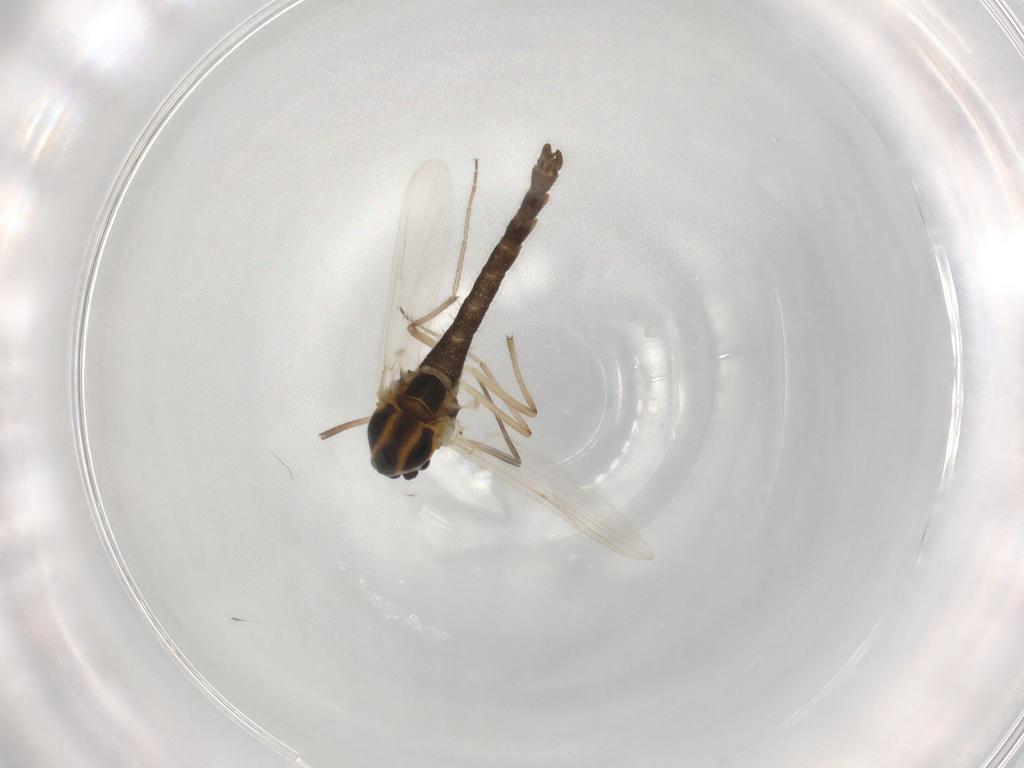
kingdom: Animalia
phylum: Arthropoda
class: Insecta
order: Diptera
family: Chironomidae
